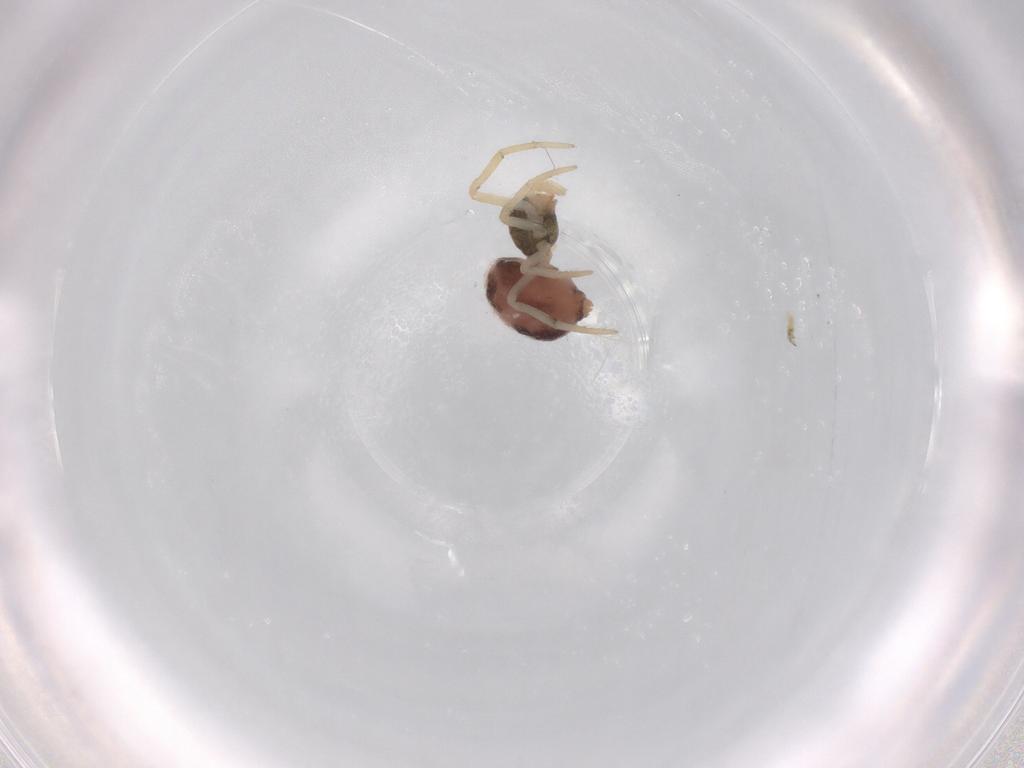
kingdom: Animalia
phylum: Arthropoda
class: Arachnida
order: Araneae
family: Theridiidae
